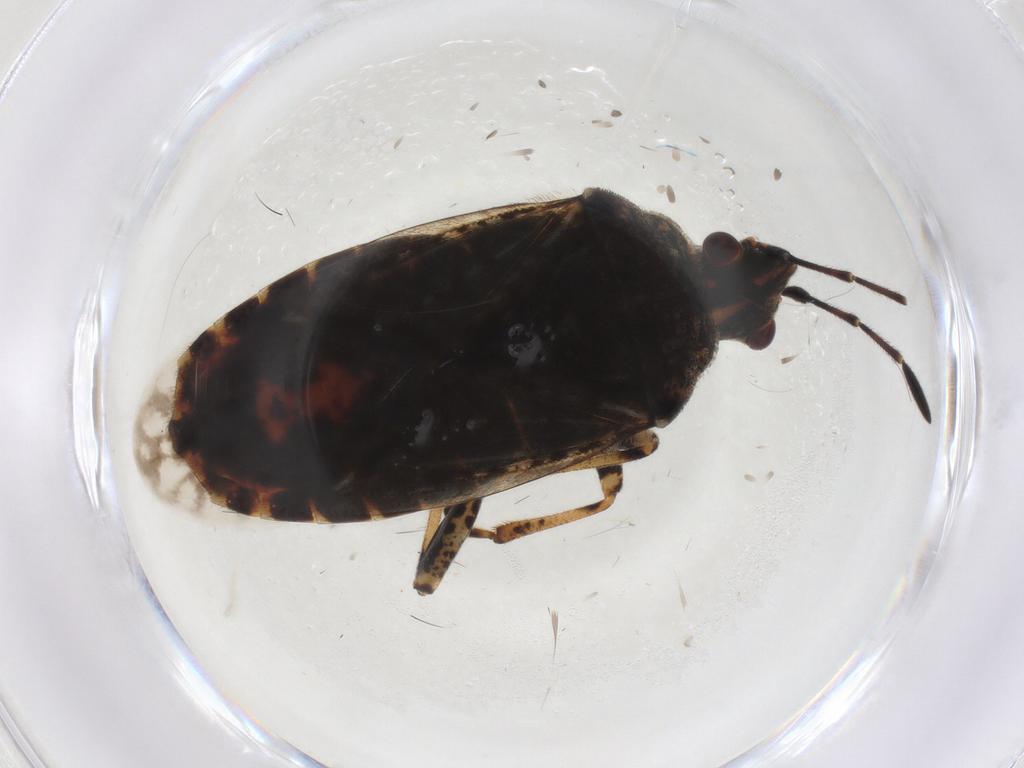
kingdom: Animalia
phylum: Arthropoda
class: Insecta
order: Hemiptera
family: Lygaeidae
